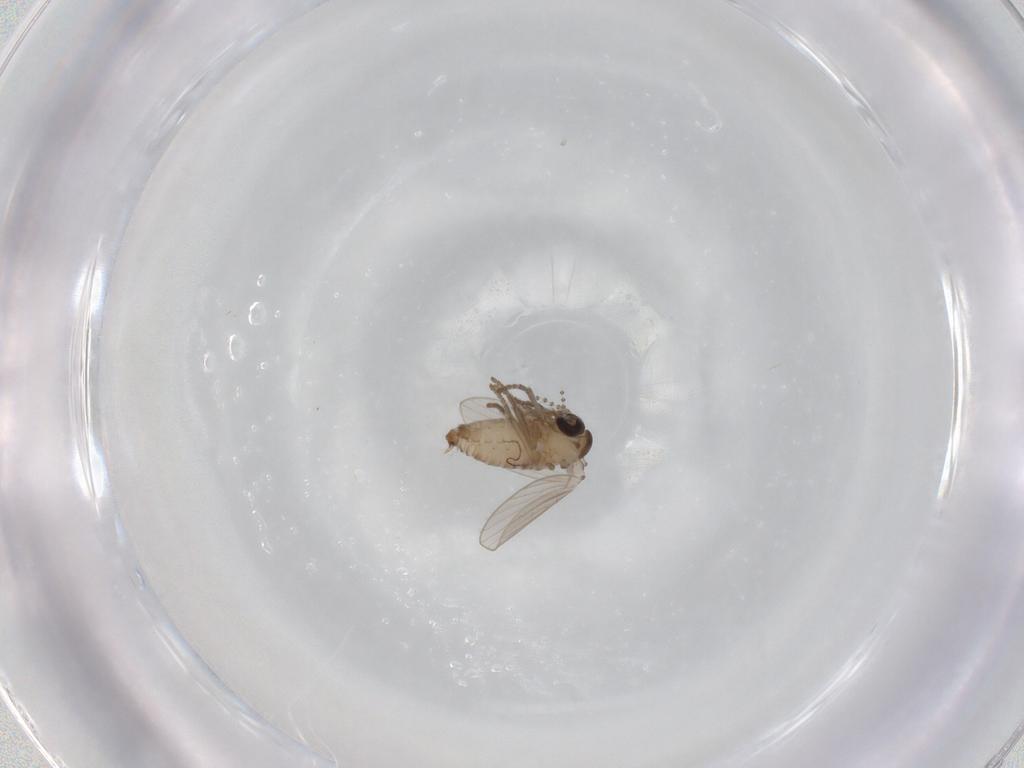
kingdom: Animalia
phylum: Arthropoda
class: Insecta
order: Diptera
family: Psychodidae
